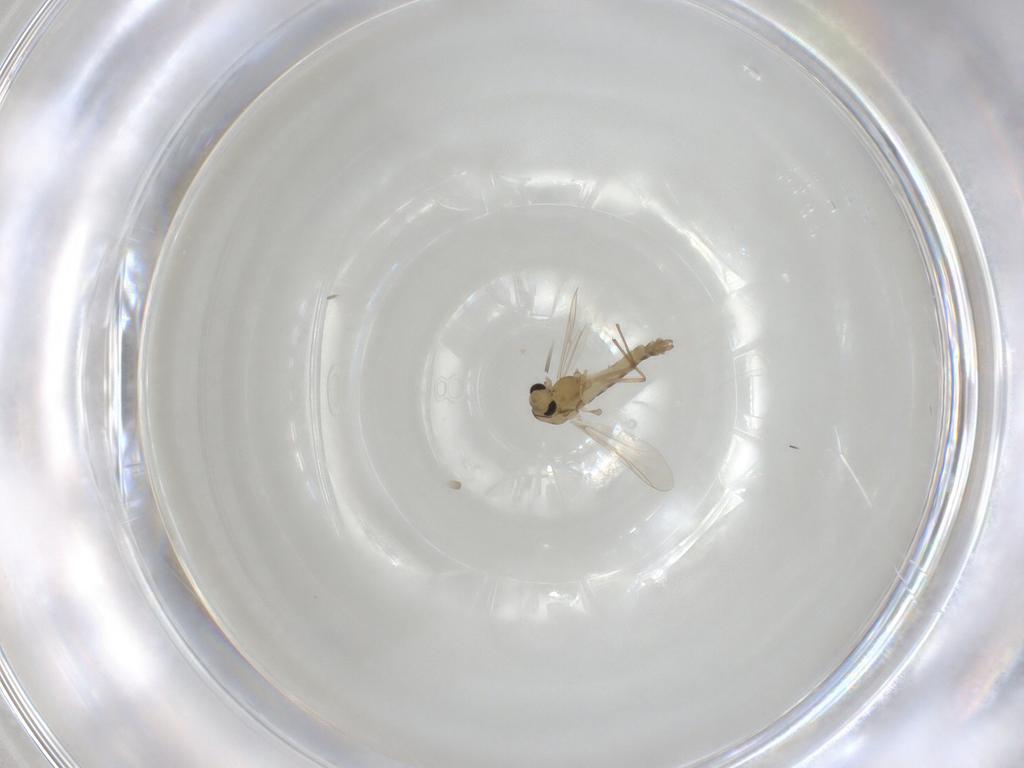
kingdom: Animalia
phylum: Arthropoda
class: Insecta
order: Diptera
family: Chironomidae
